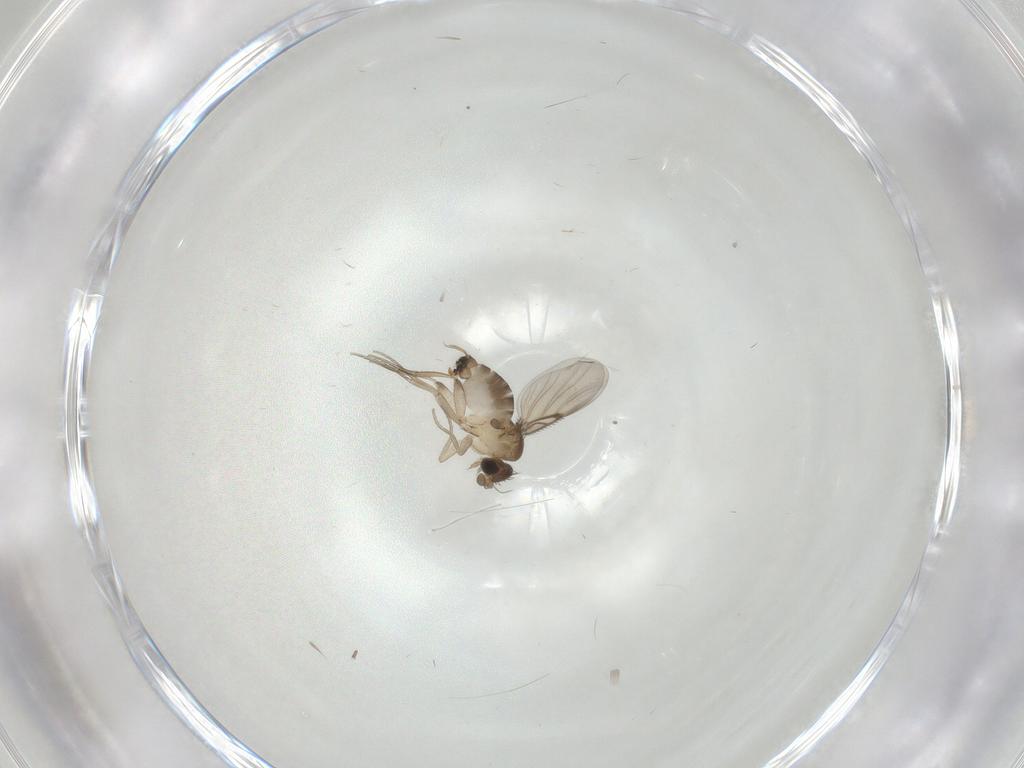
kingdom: Animalia
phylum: Arthropoda
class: Insecta
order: Diptera
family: Phoridae
